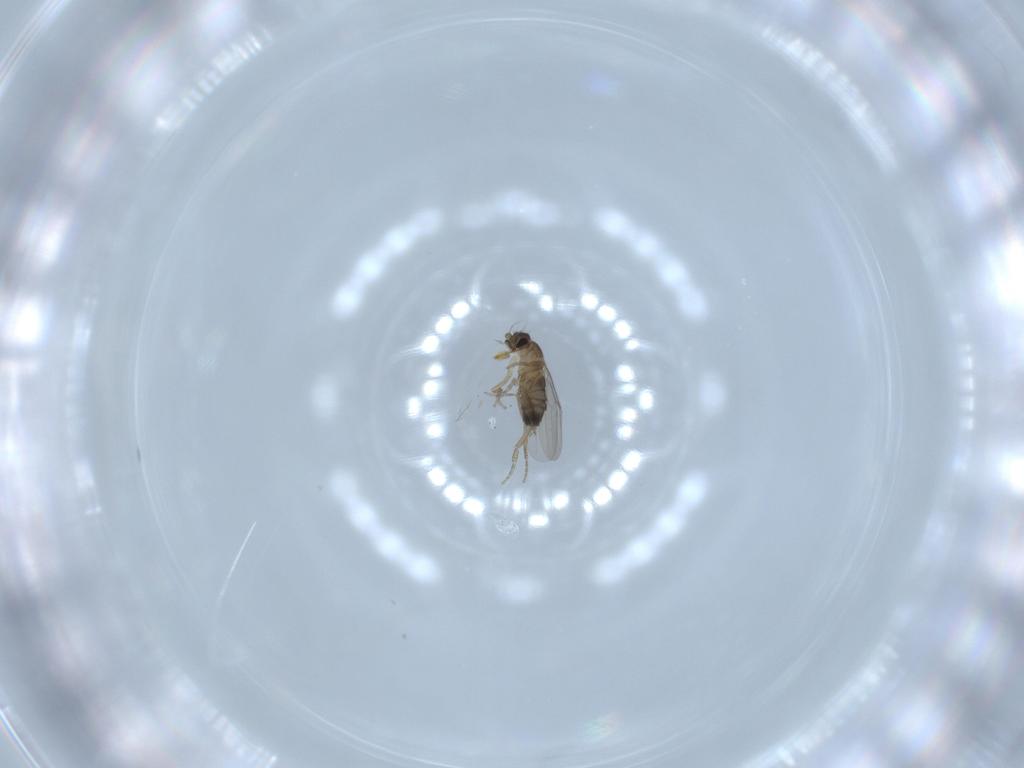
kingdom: Animalia
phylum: Arthropoda
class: Insecta
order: Diptera
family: Phoridae
